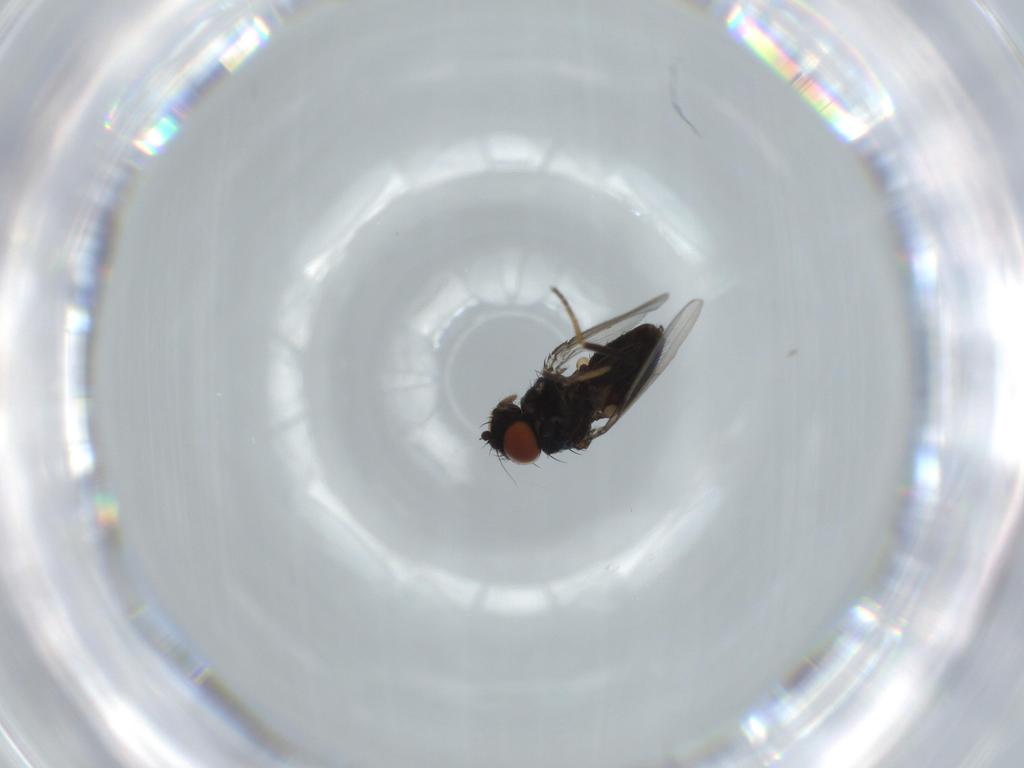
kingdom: Animalia
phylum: Arthropoda
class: Insecta
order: Diptera
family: Milichiidae
